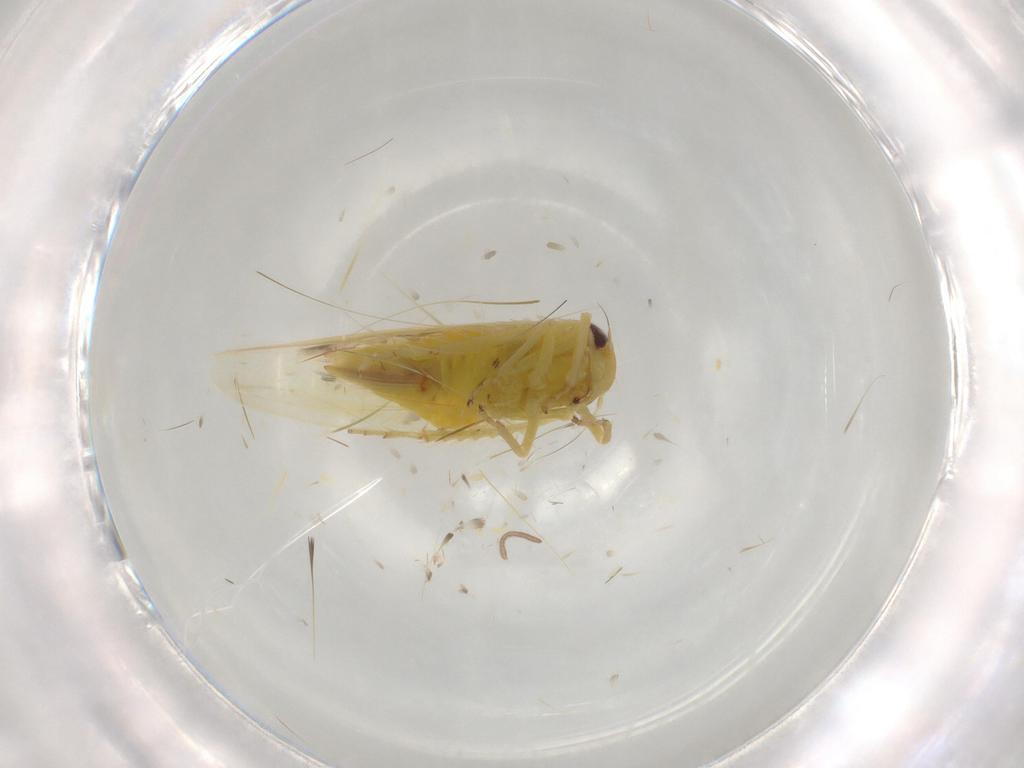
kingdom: Animalia
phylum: Arthropoda
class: Insecta
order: Hemiptera
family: Cicadellidae
